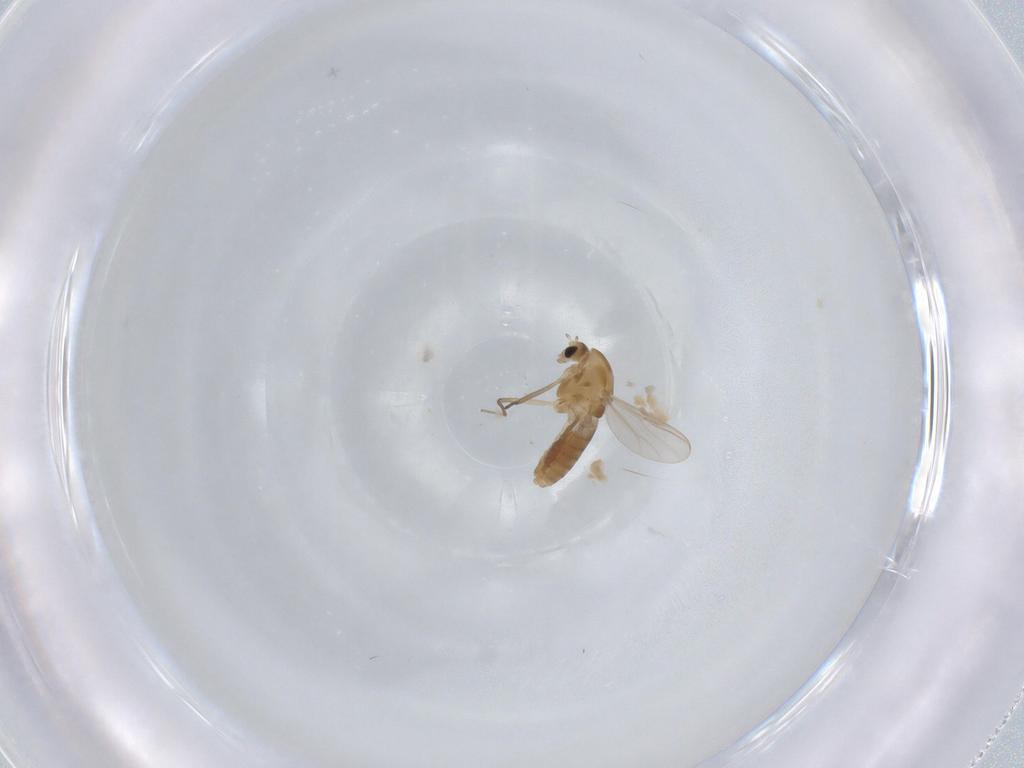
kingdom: Animalia
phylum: Arthropoda
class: Insecta
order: Diptera
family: Chironomidae
